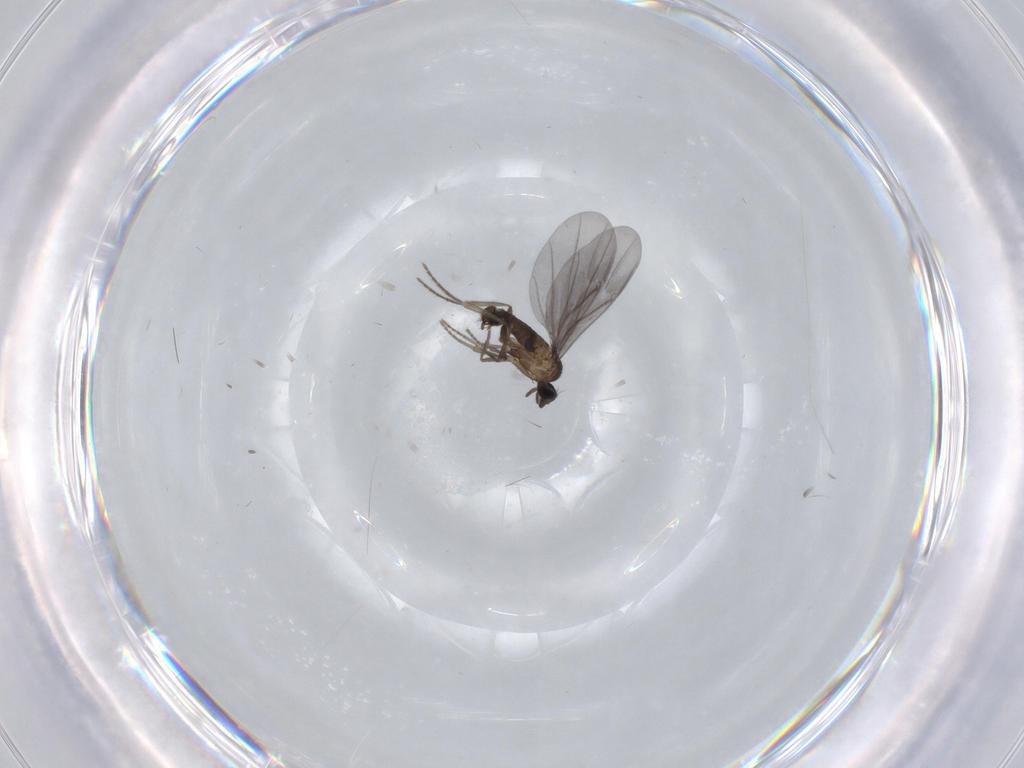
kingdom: Animalia
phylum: Arthropoda
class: Insecta
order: Diptera
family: Phoridae
